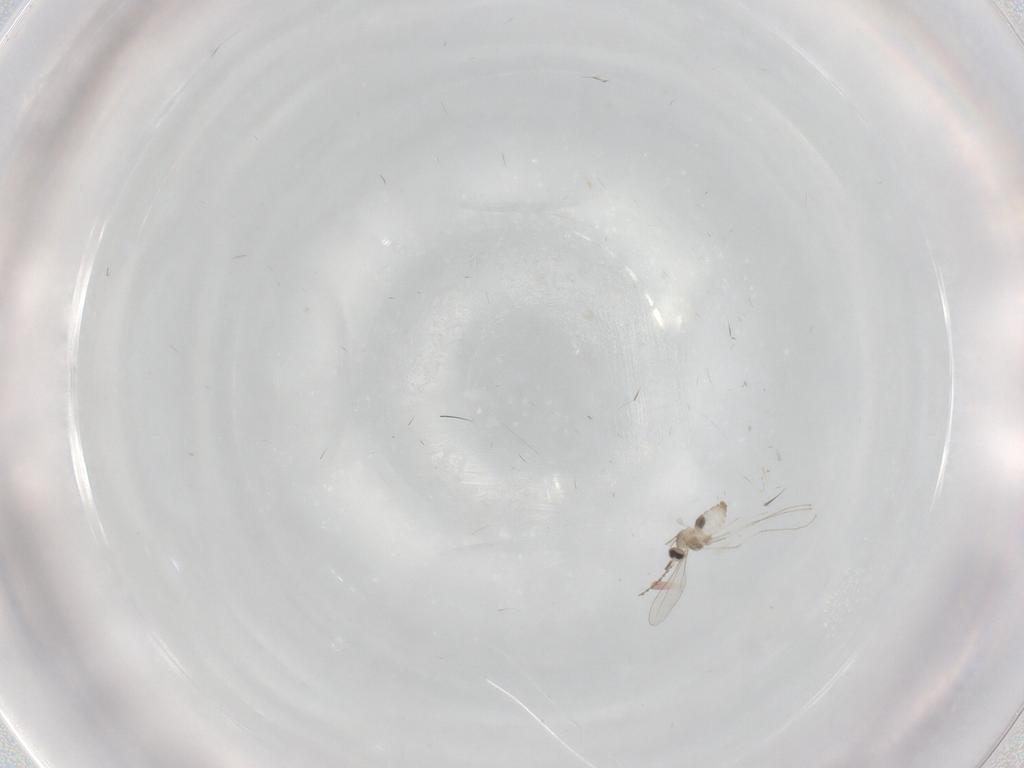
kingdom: Animalia
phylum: Arthropoda
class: Insecta
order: Diptera
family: Cecidomyiidae
